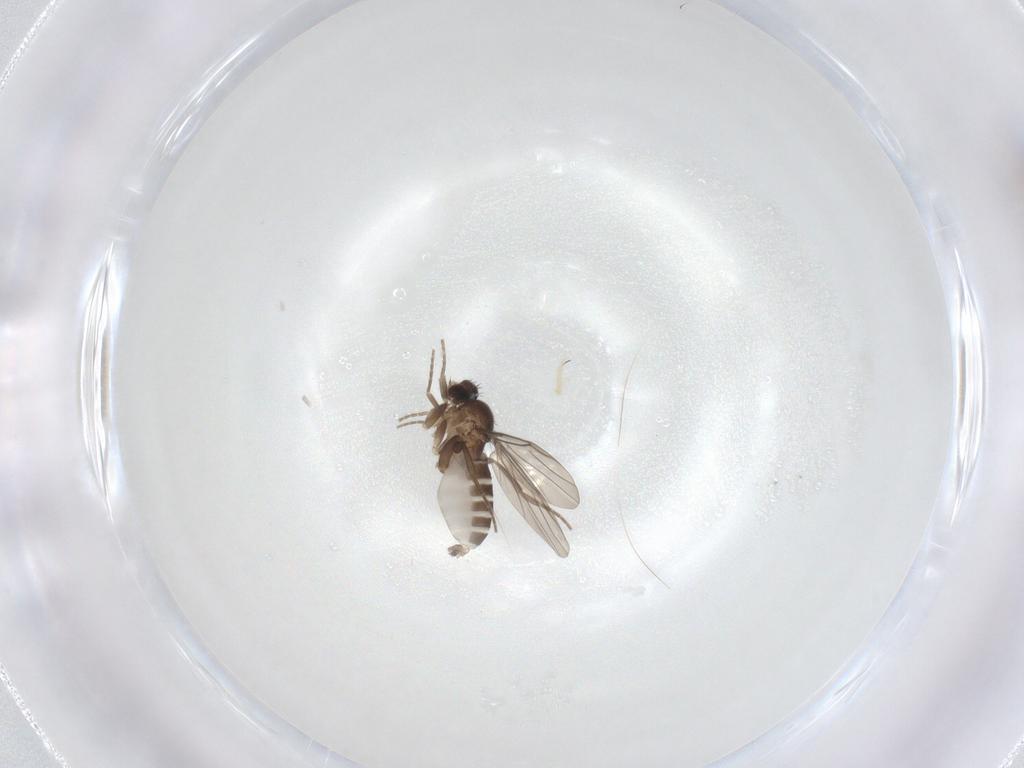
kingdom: Animalia
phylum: Arthropoda
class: Insecta
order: Diptera
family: Phoridae
